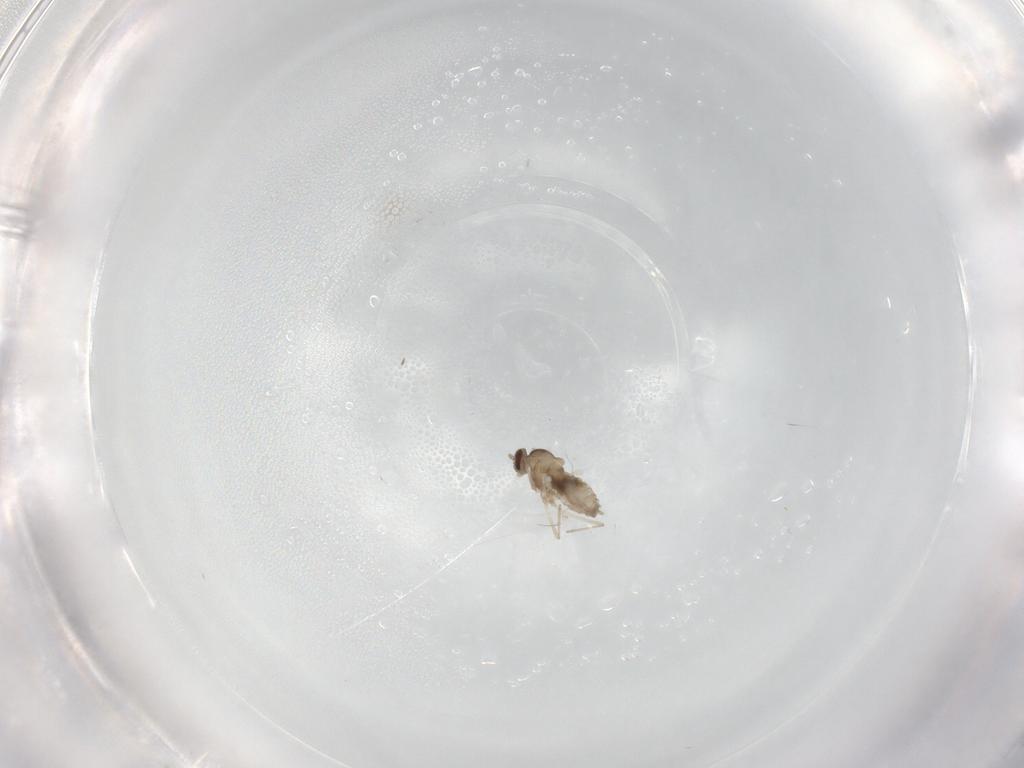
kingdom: Animalia
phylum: Arthropoda
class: Insecta
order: Diptera
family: Cecidomyiidae
